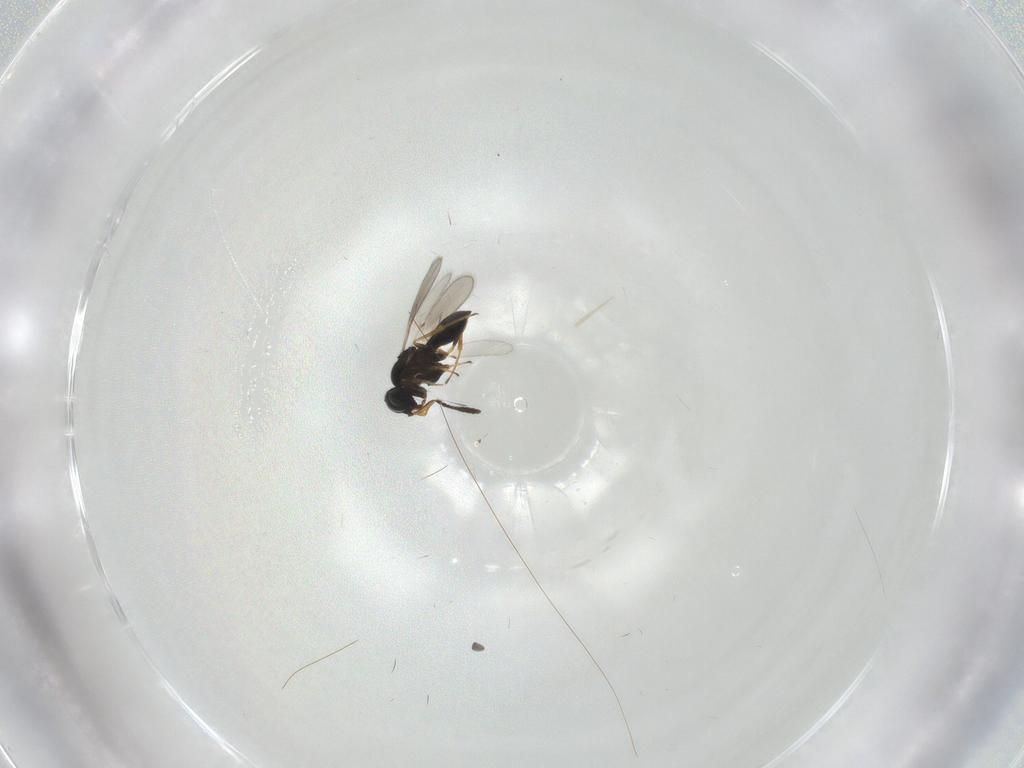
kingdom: Animalia
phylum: Arthropoda
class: Insecta
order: Hymenoptera
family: Scelionidae
